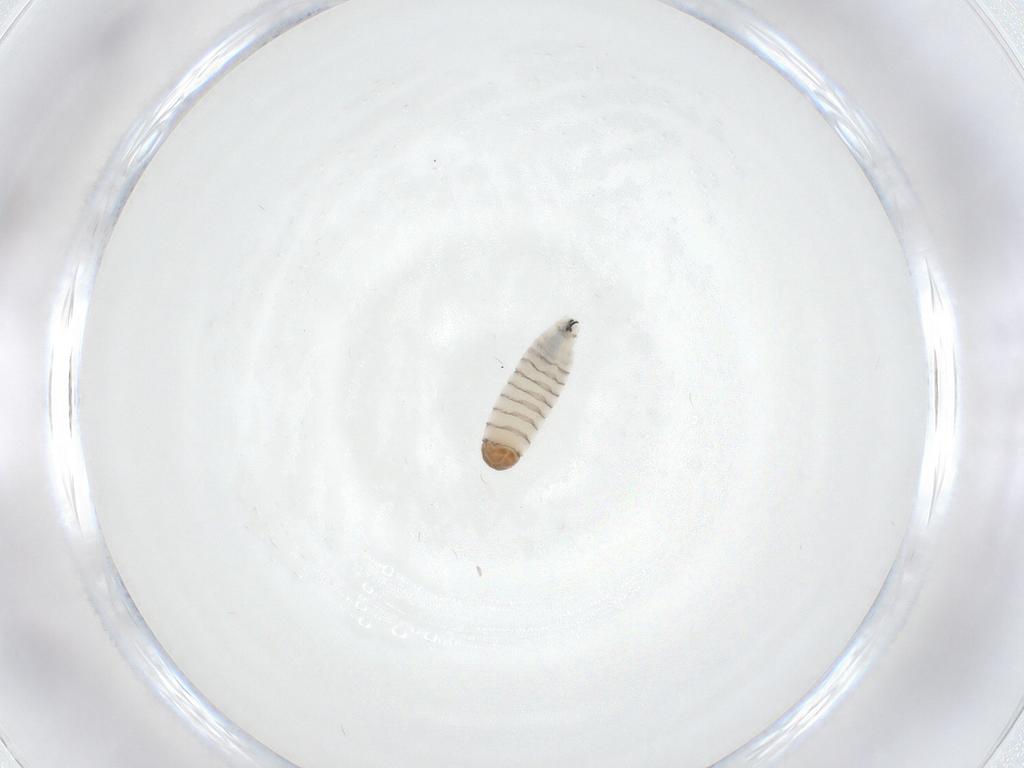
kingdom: Animalia
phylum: Arthropoda
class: Insecta
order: Diptera
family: Sarcophagidae
